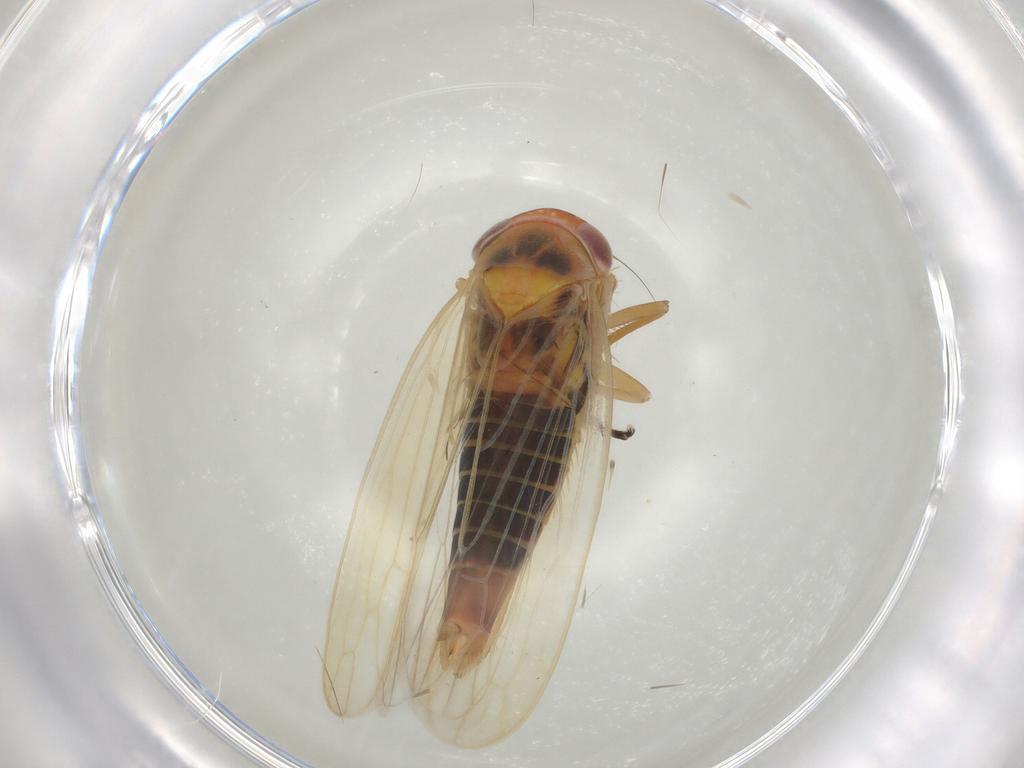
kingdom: Animalia
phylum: Arthropoda
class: Insecta
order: Hemiptera
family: Cicadellidae
